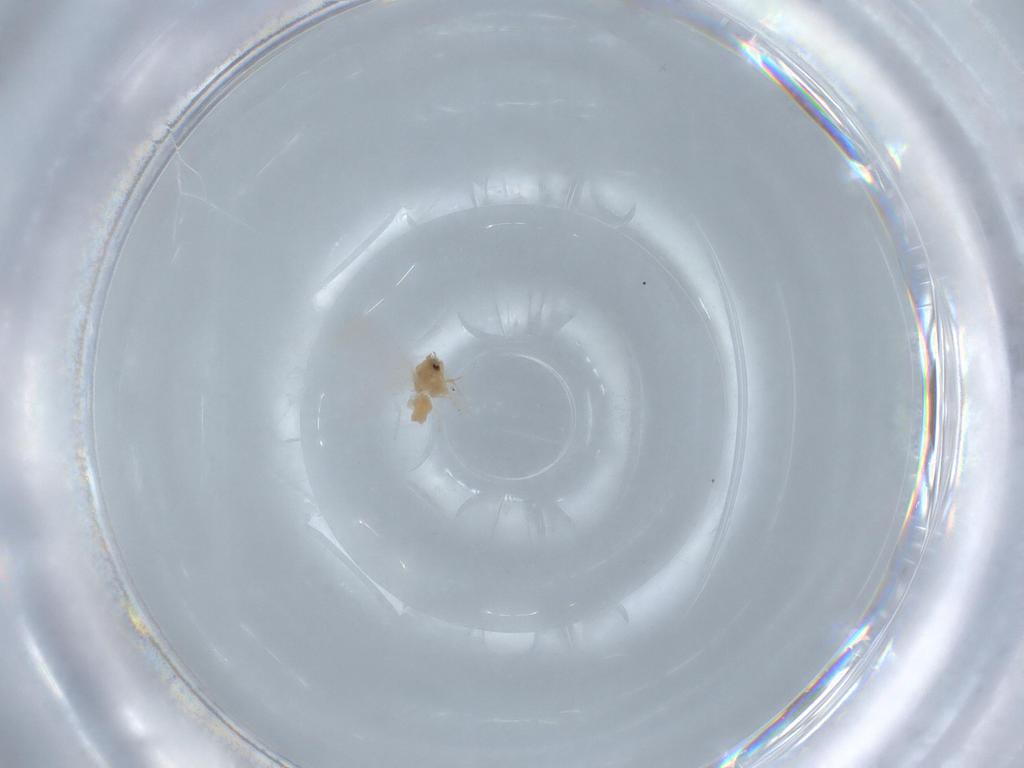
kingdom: Animalia
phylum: Arthropoda
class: Insecta
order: Hemiptera
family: Aleyrodidae
